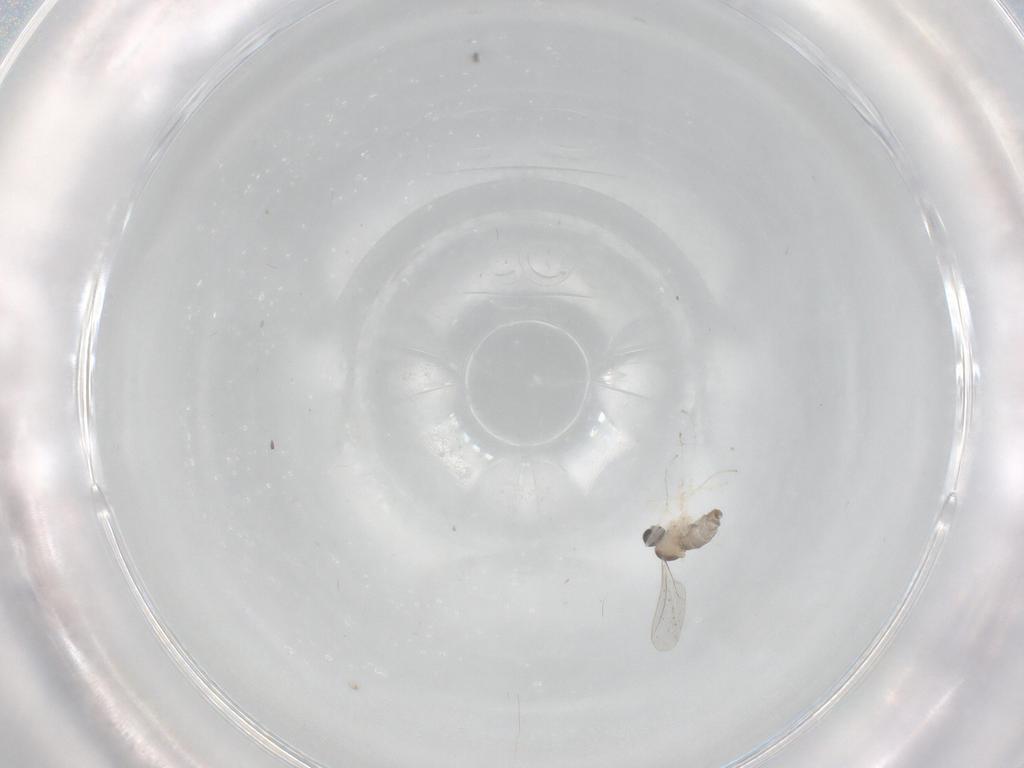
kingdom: Animalia
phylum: Arthropoda
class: Insecta
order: Diptera
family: Cecidomyiidae
